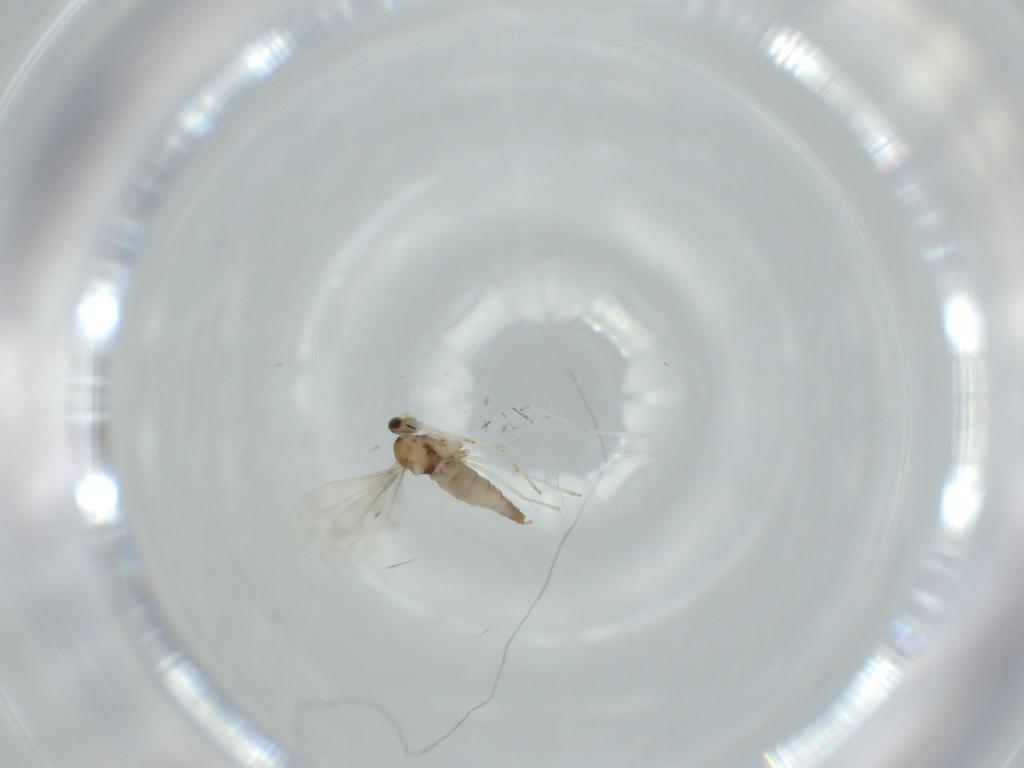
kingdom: Animalia
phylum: Arthropoda
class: Insecta
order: Diptera
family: Cecidomyiidae
